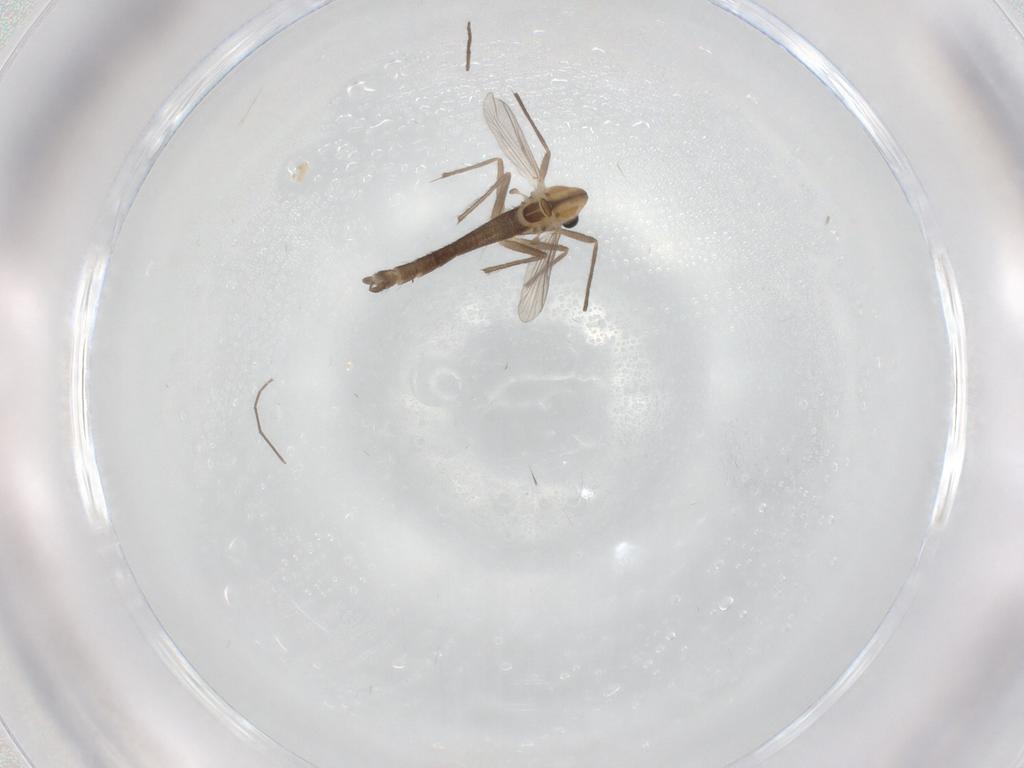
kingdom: Animalia
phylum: Arthropoda
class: Insecta
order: Diptera
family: Chironomidae
